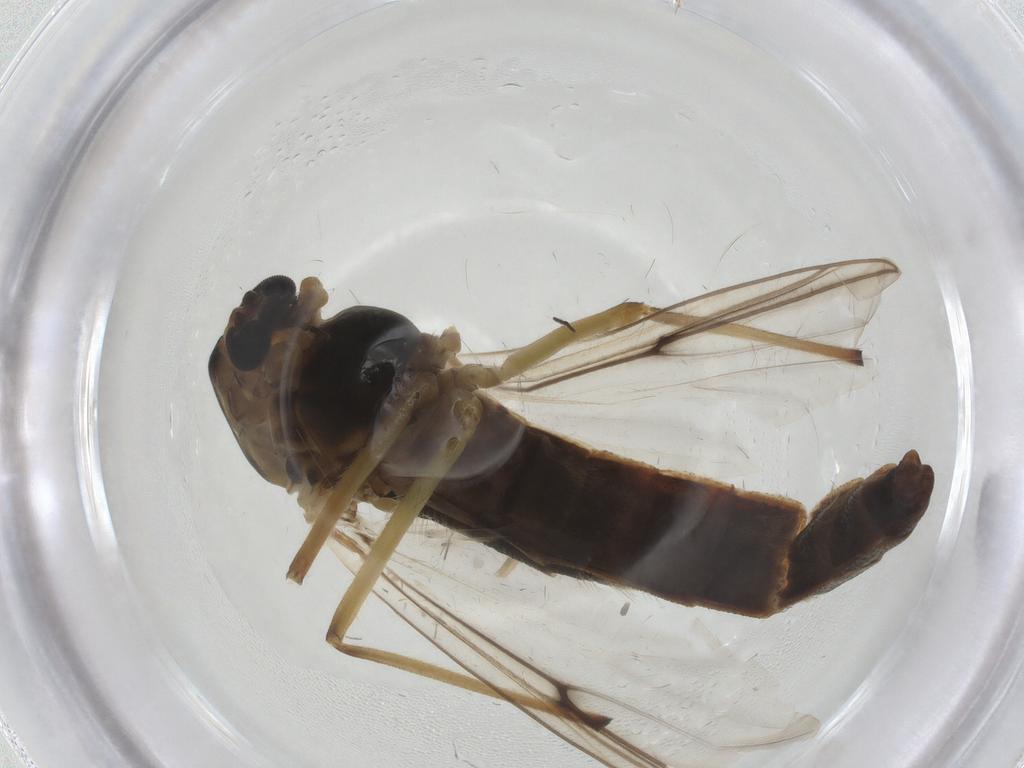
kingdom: Animalia
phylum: Arthropoda
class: Insecta
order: Diptera
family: Chironomidae
